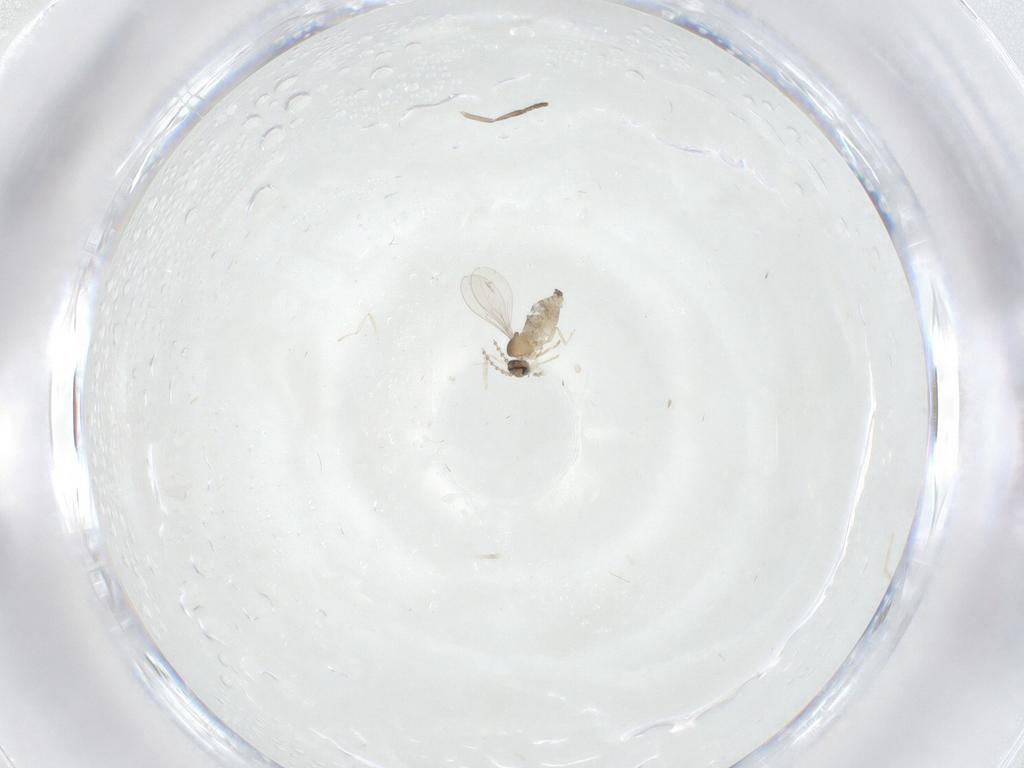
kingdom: Animalia
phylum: Arthropoda
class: Insecta
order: Diptera
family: Cecidomyiidae
